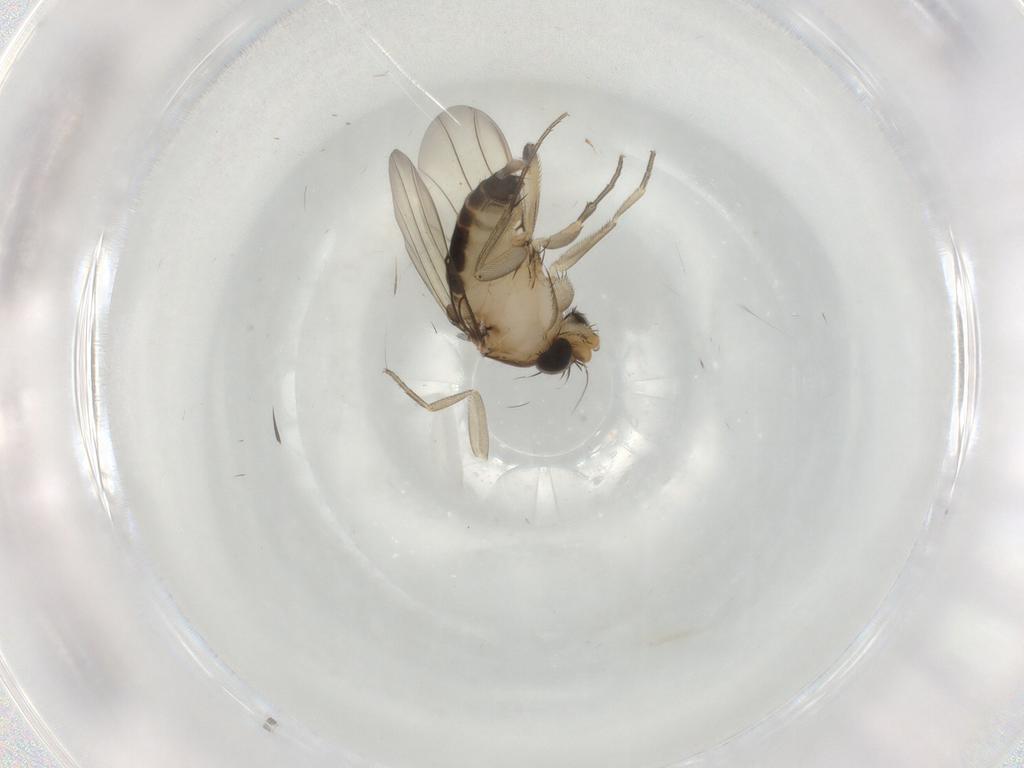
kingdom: Animalia
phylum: Arthropoda
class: Insecta
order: Diptera
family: Phoridae
